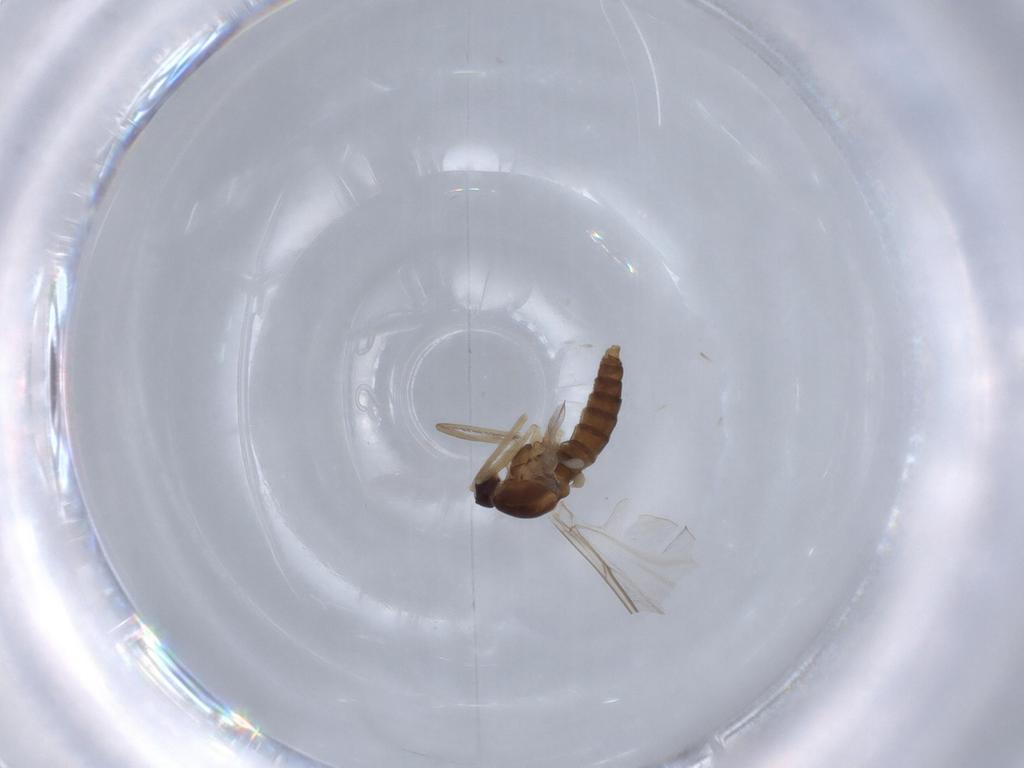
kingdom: Animalia
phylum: Arthropoda
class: Insecta
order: Diptera
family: Cecidomyiidae
